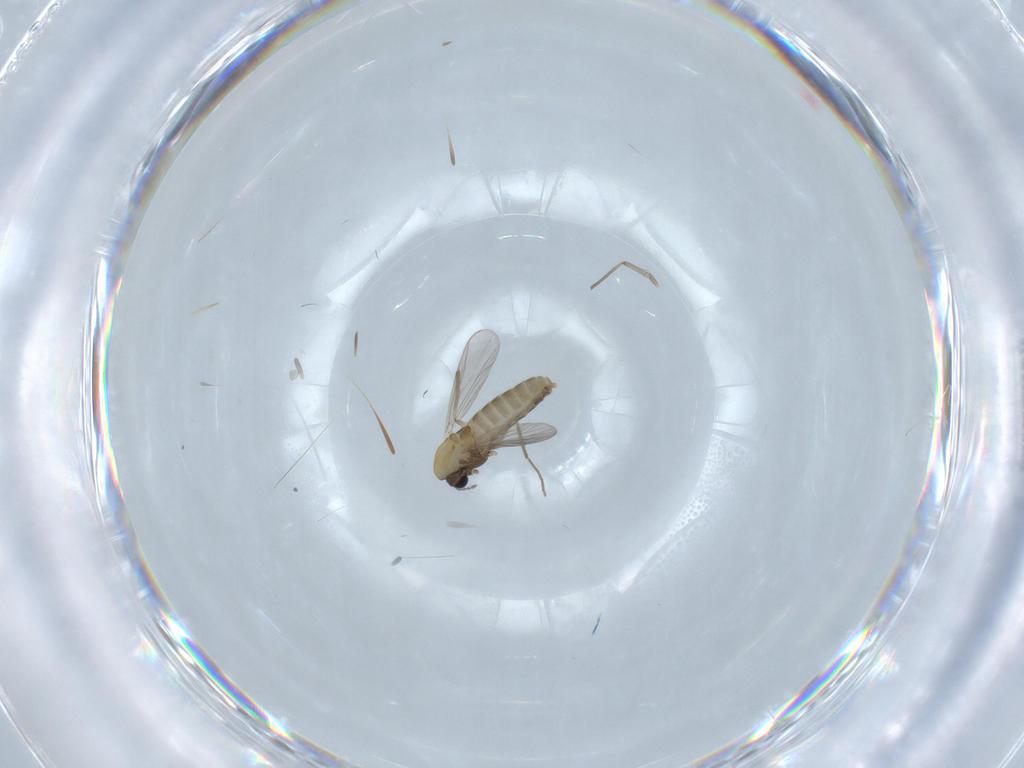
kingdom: Animalia
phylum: Arthropoda
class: Insecta
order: Diptera
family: Chironomidae
